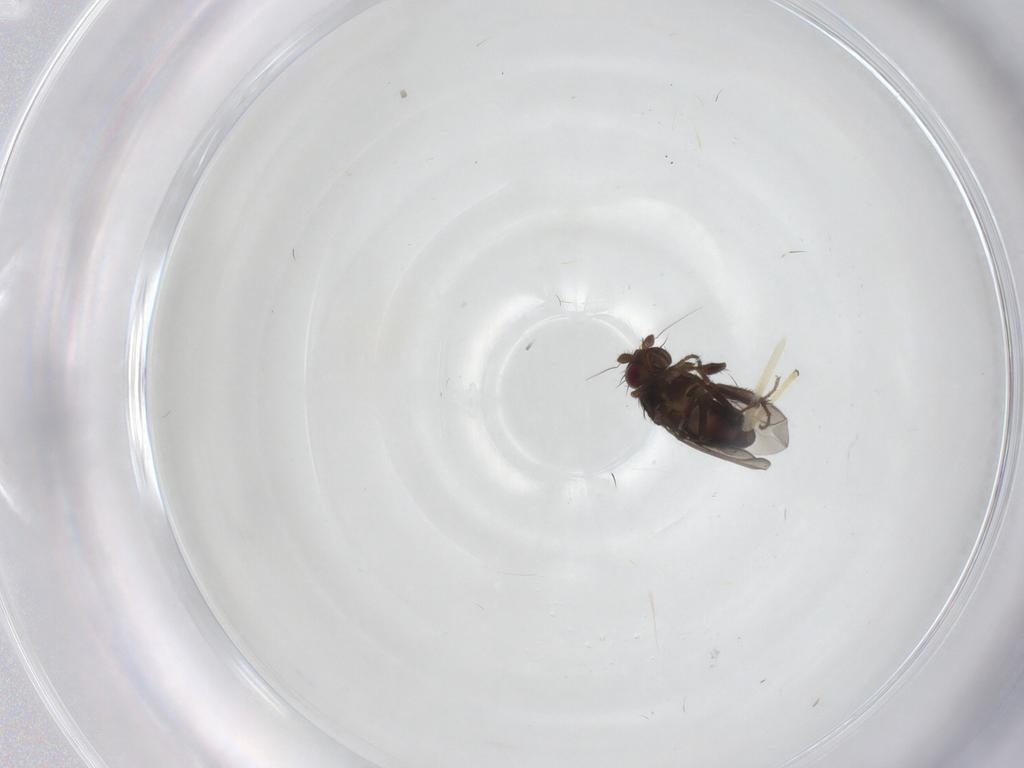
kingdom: Animalia
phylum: Arthropoda
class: Insecta
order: Diptera
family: Sphaeroceridae
